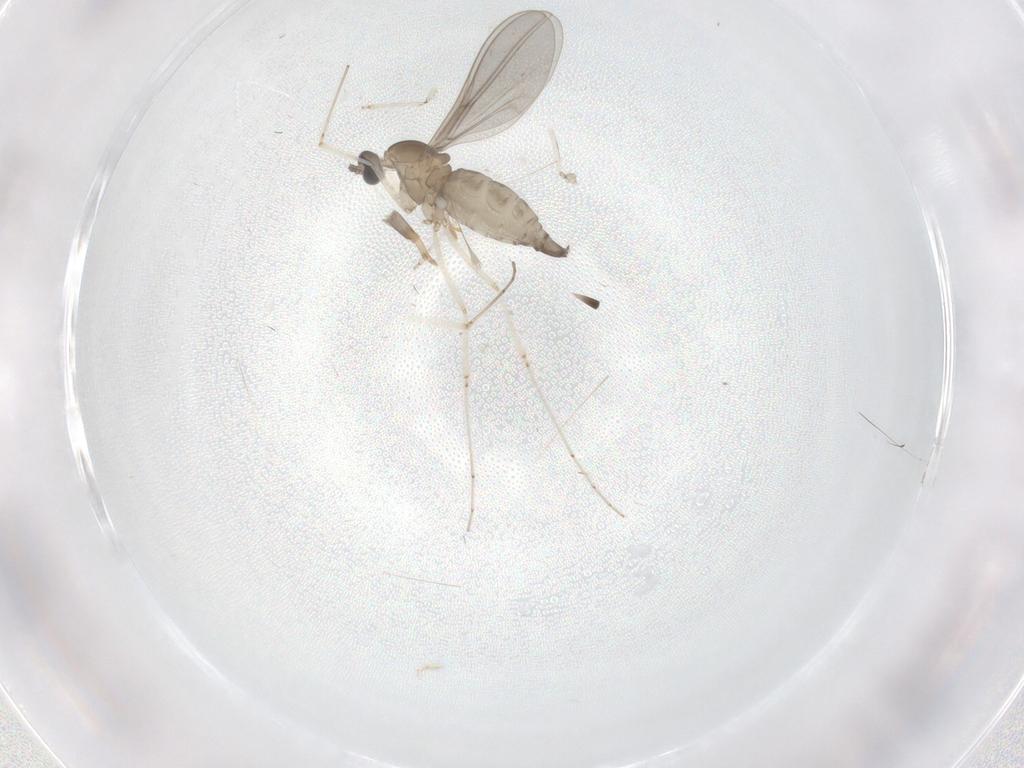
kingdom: Animalia
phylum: Arthropoda
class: Insecta
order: Diptera
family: Cecidomyiidae
